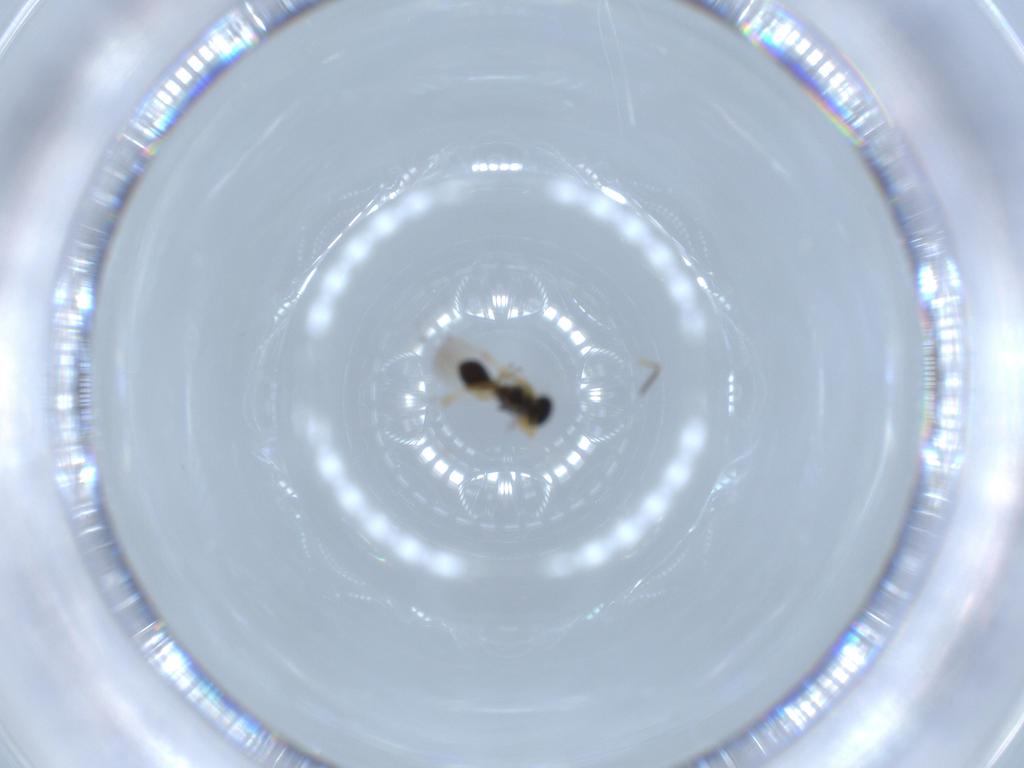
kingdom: Animalia
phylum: Arthropoda
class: Insecta
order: Hymenoptera
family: Platygastridae
